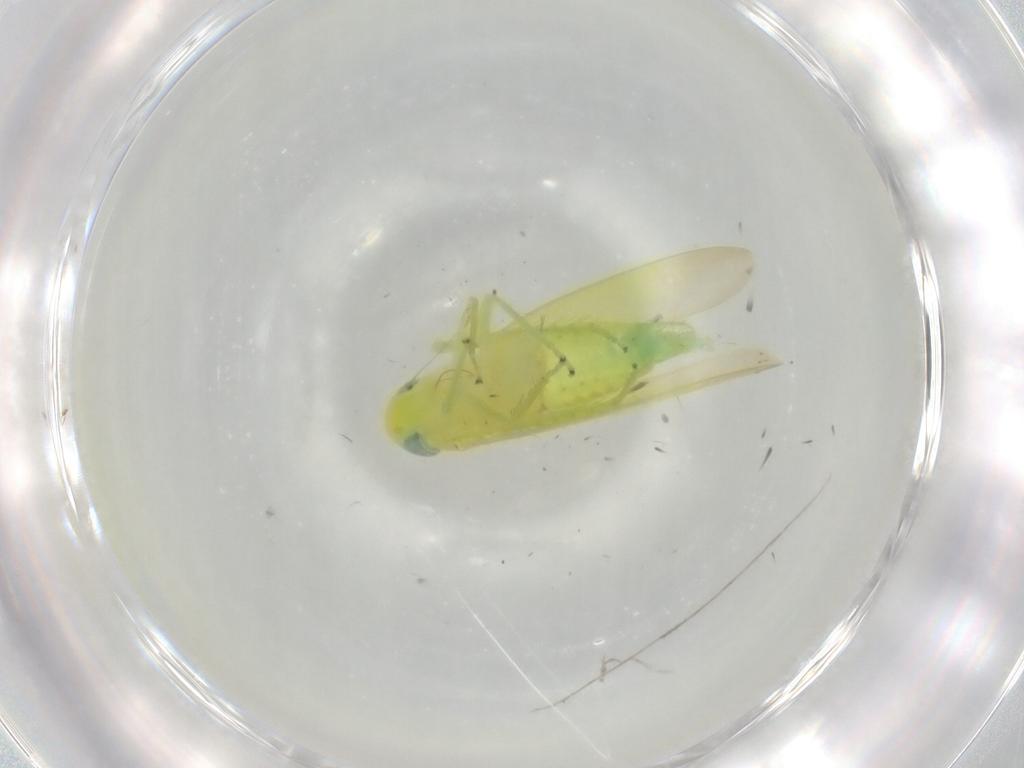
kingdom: Animalia
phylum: Arthropoda
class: Insecta
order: Hemiptera
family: Cicadellidae
